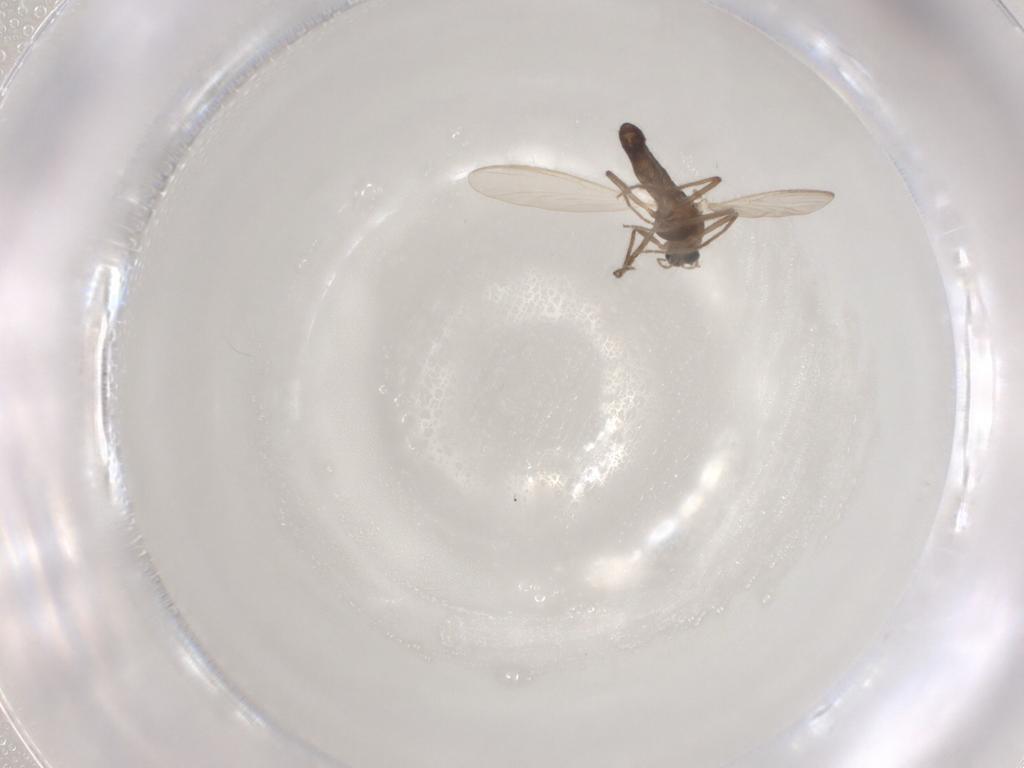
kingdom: Animalia
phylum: Arthropoda
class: Insecta
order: Diptera
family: Chironomidae
